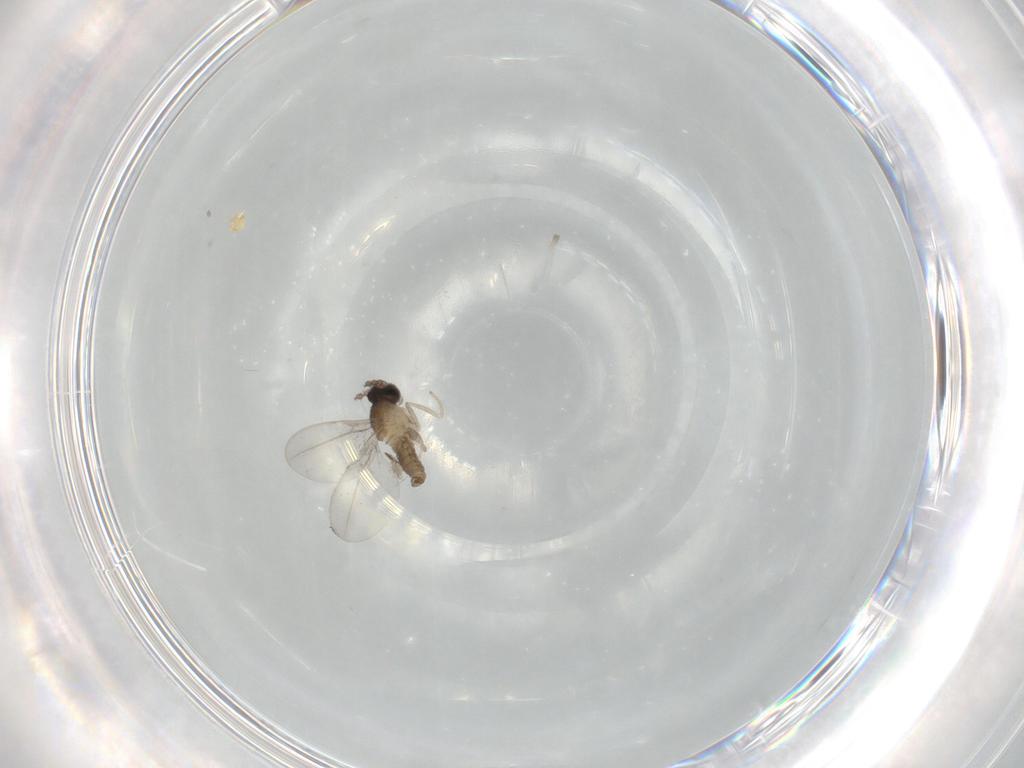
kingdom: Animalia
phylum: Arthropoda
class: Insecta
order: Diptera
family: Cecidomyiidae
